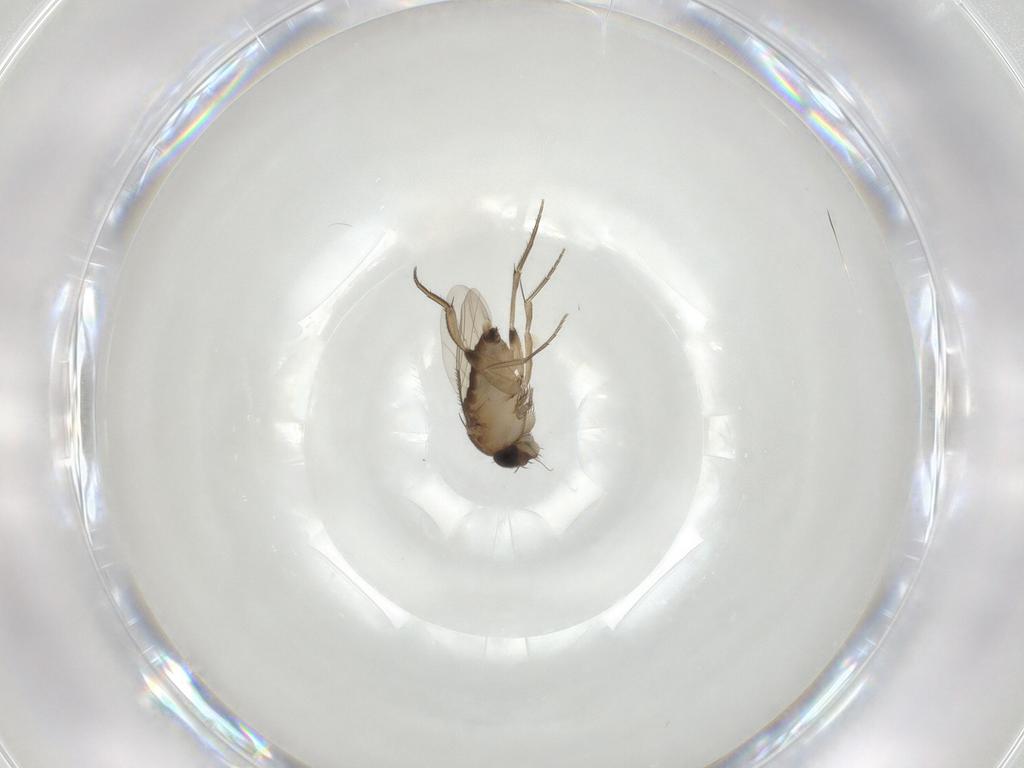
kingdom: Animalia
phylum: Arthropoda
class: Insecta
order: Diptera
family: Phoridae
